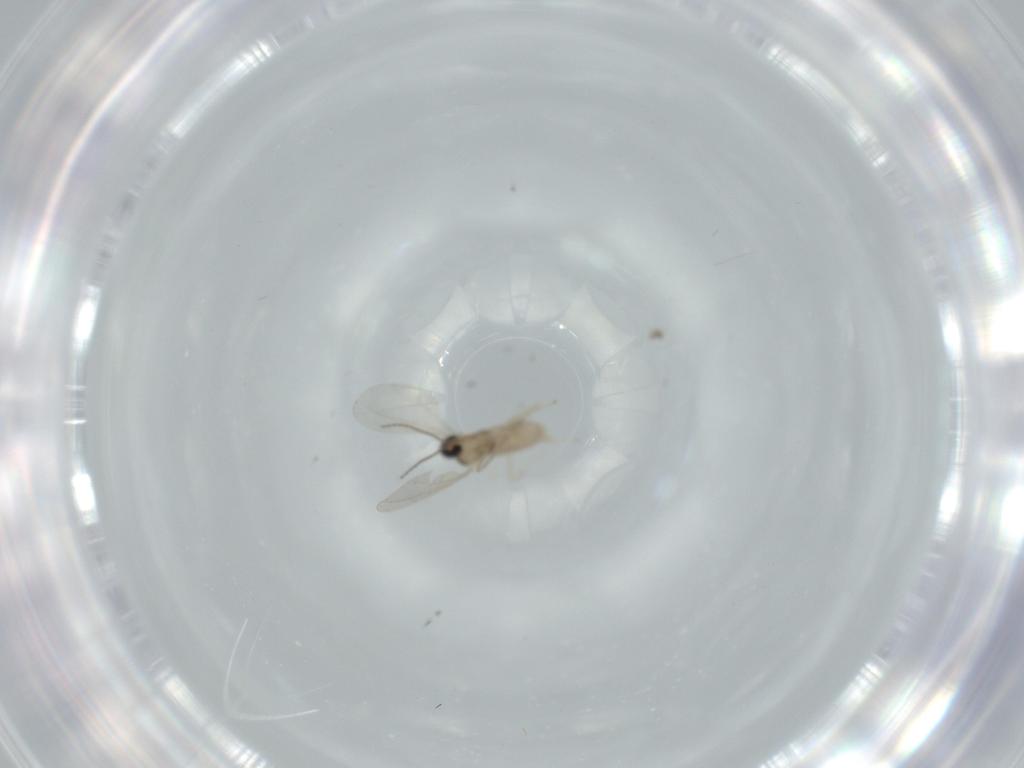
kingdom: Animalia
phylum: Arthropoda
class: Insecta
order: Diptera
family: Cecidomyiidae
